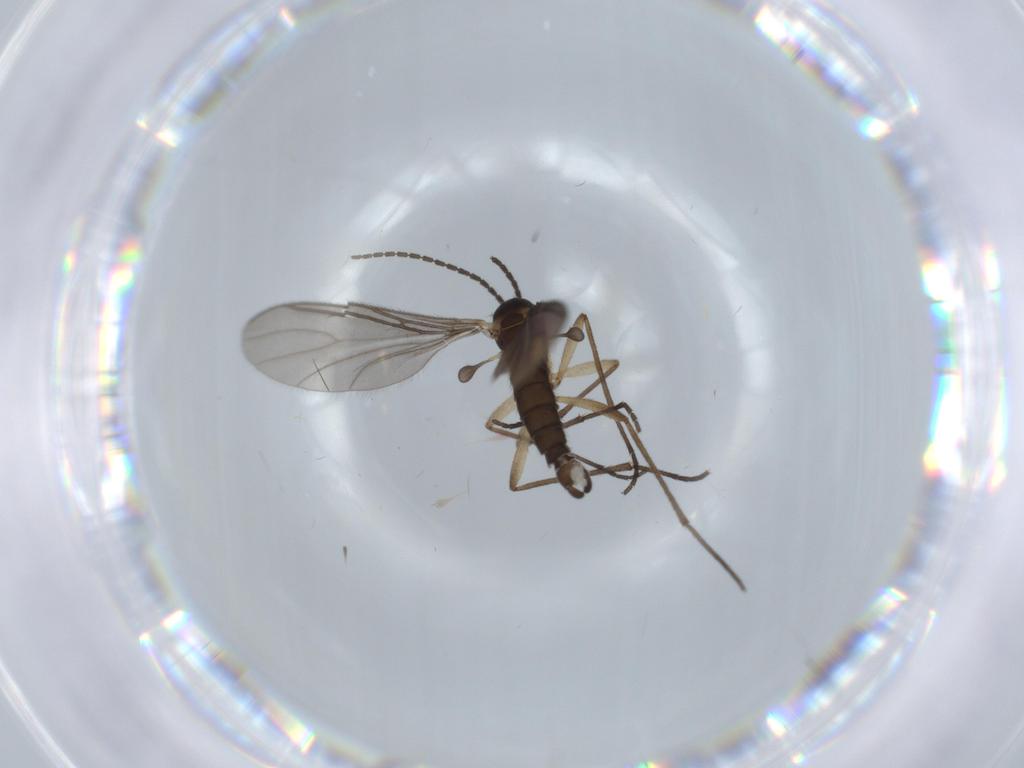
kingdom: Animalia
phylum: Arthropoda
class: Insecta
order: Diptera
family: Sciaridae
